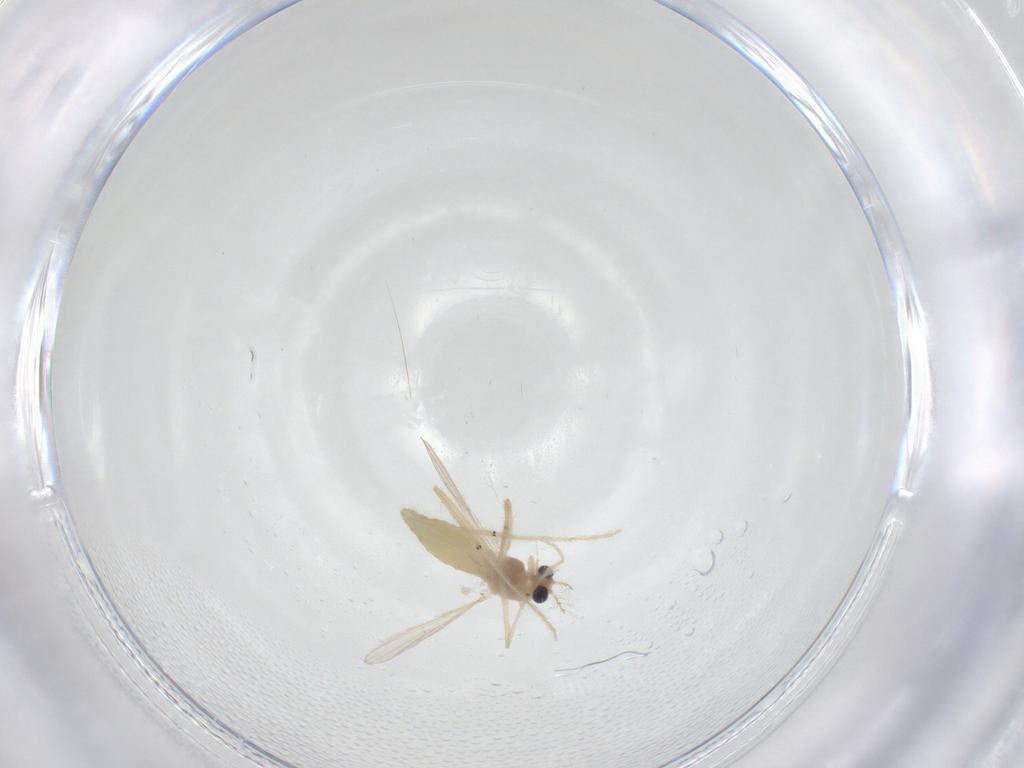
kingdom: Animalia
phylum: Arthropoda
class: Insecta
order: Diptera
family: Chironomidae
